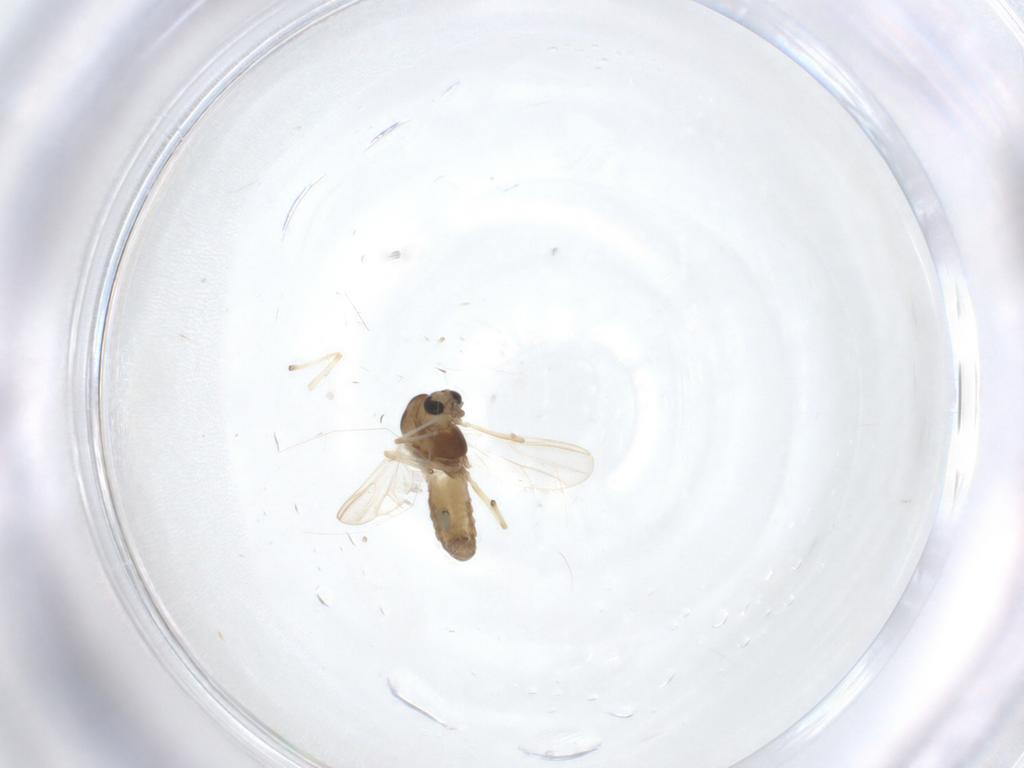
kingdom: Animalia
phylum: Arthropoda
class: Insecta
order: Diptera
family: Chironomidae
